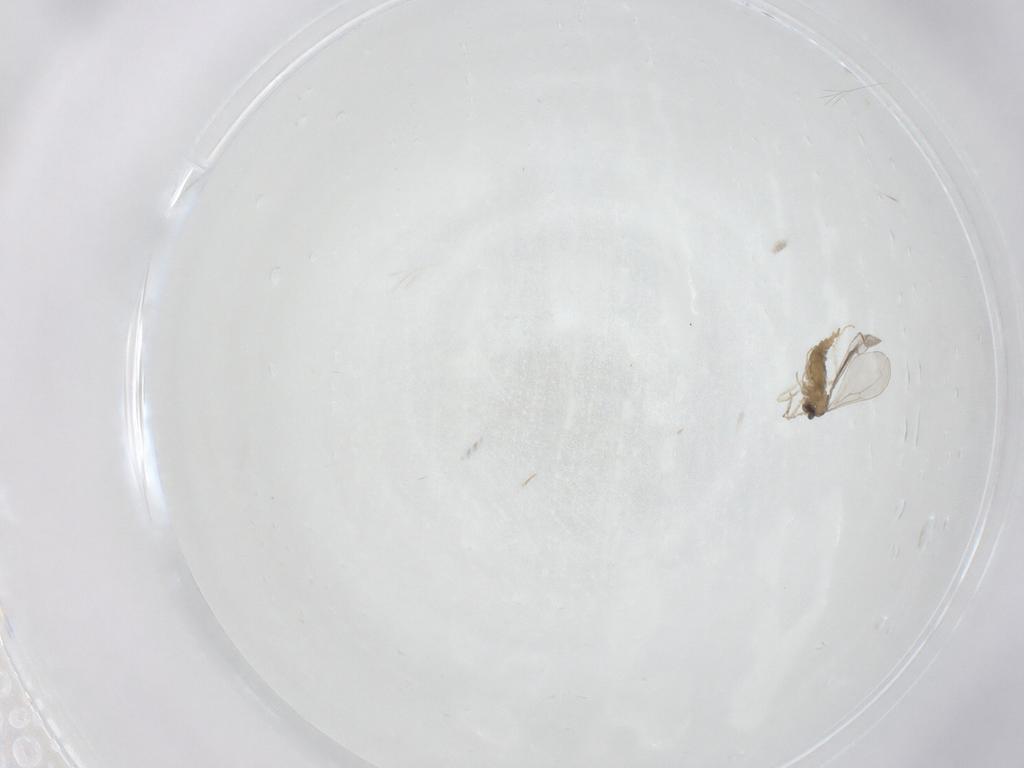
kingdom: Animalia
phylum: Arthropoda
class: Insecta
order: Diptera
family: Cecidomyiidae
